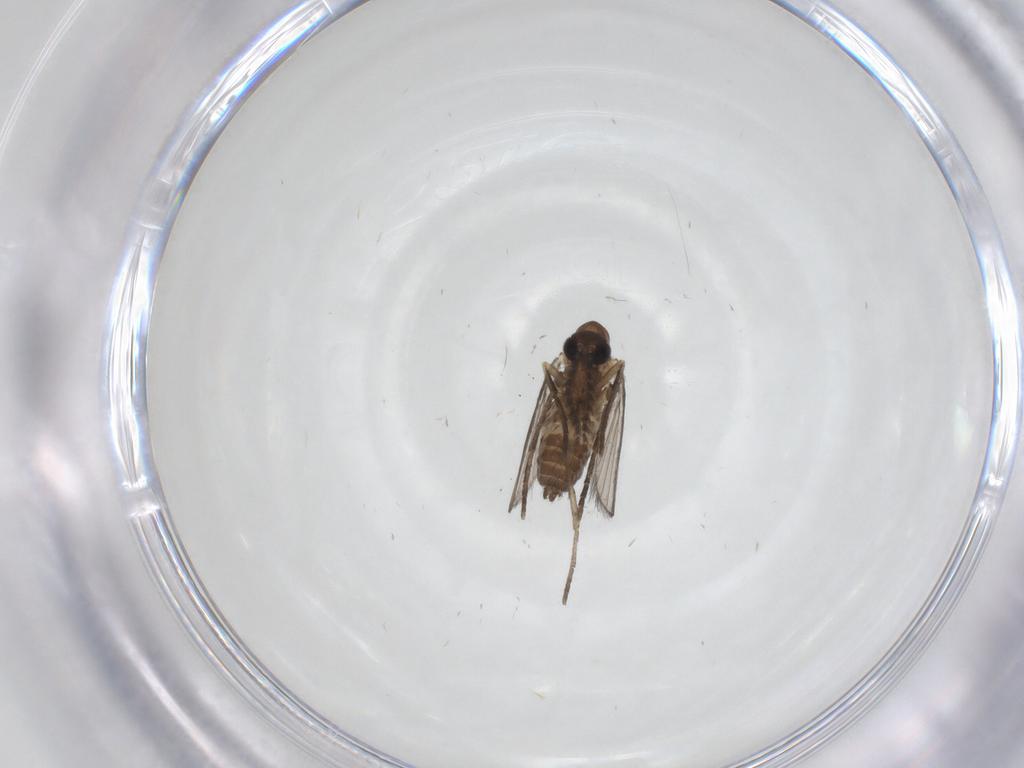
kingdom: Animalia
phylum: Arthropoda
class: Insecta
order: Diptera
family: Psychodidae
